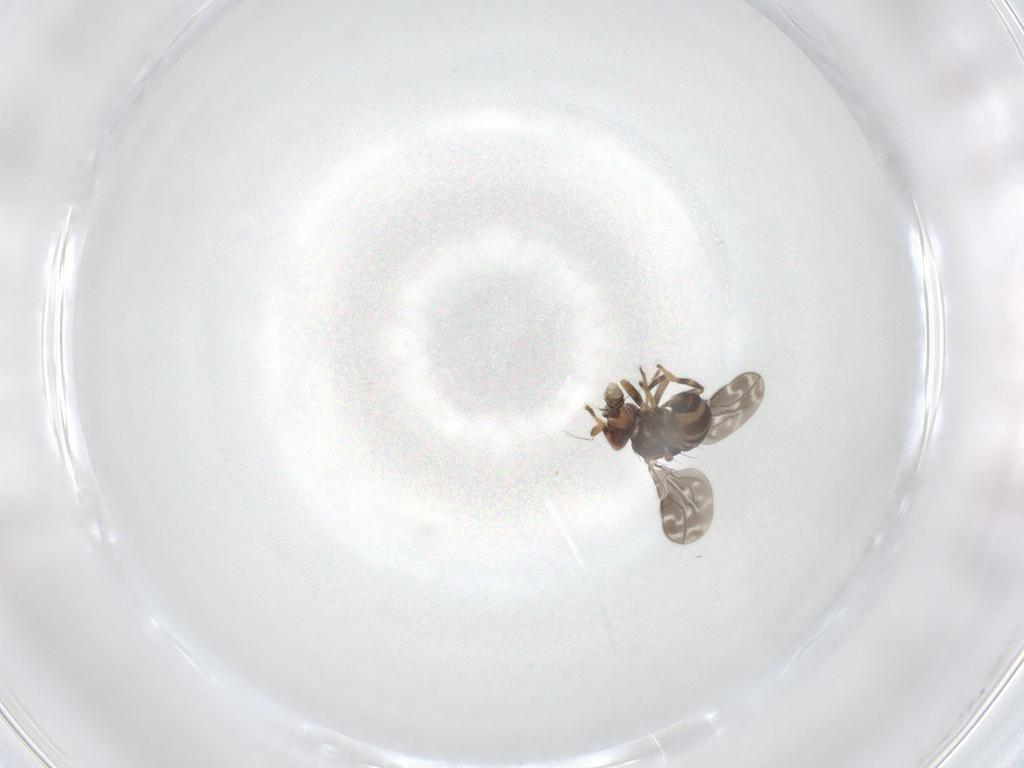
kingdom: Animalia
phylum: Arthropoda
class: Insecta
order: Diptera
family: Sphaeroceridae
